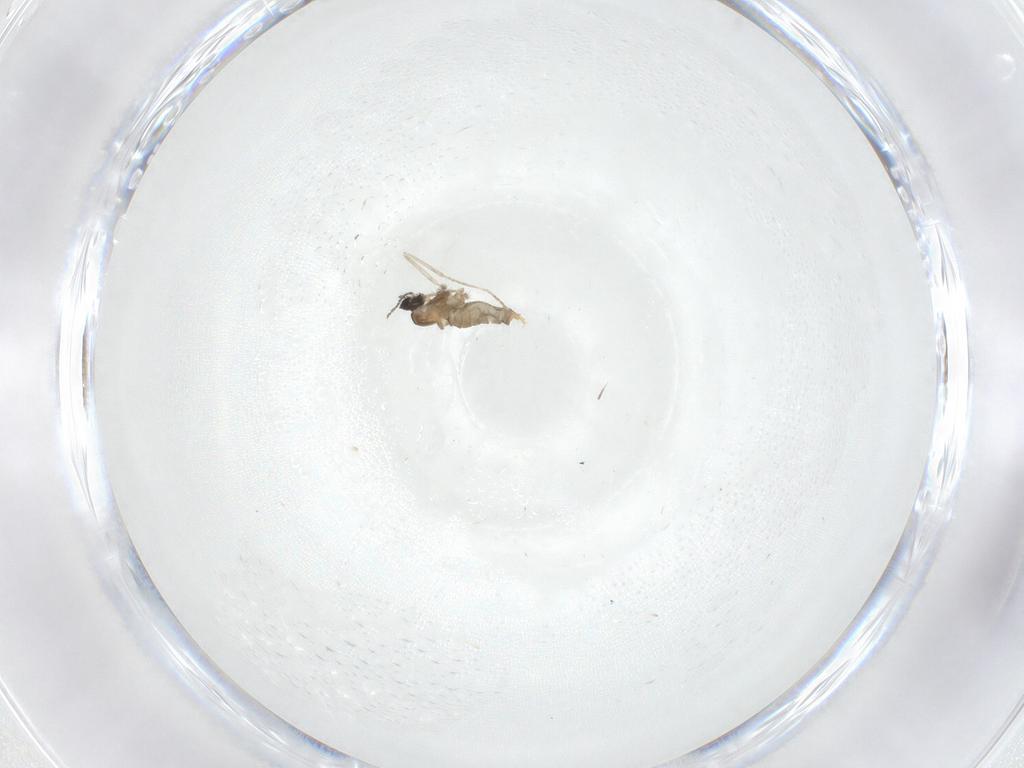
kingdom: Animalia
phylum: Arthropoda
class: Insecta
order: Diptera
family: Cecidomyiidae
